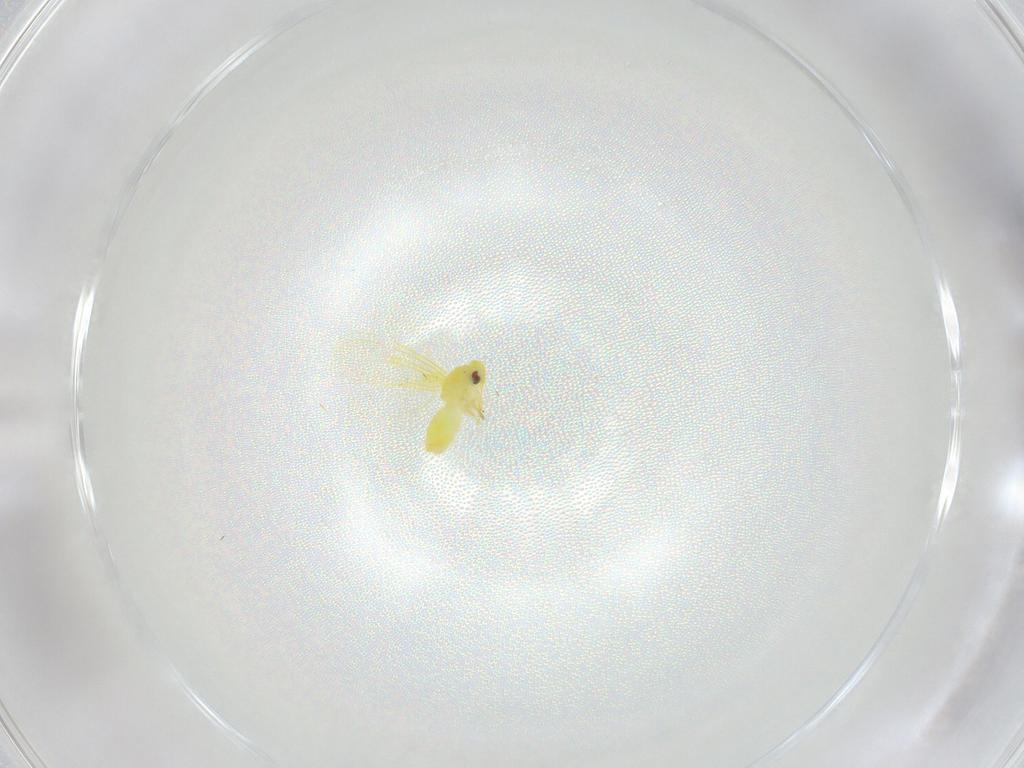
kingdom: Animalia
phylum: Arthropoda
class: Insecta
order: Hemiptera
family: Aleyrodidae
